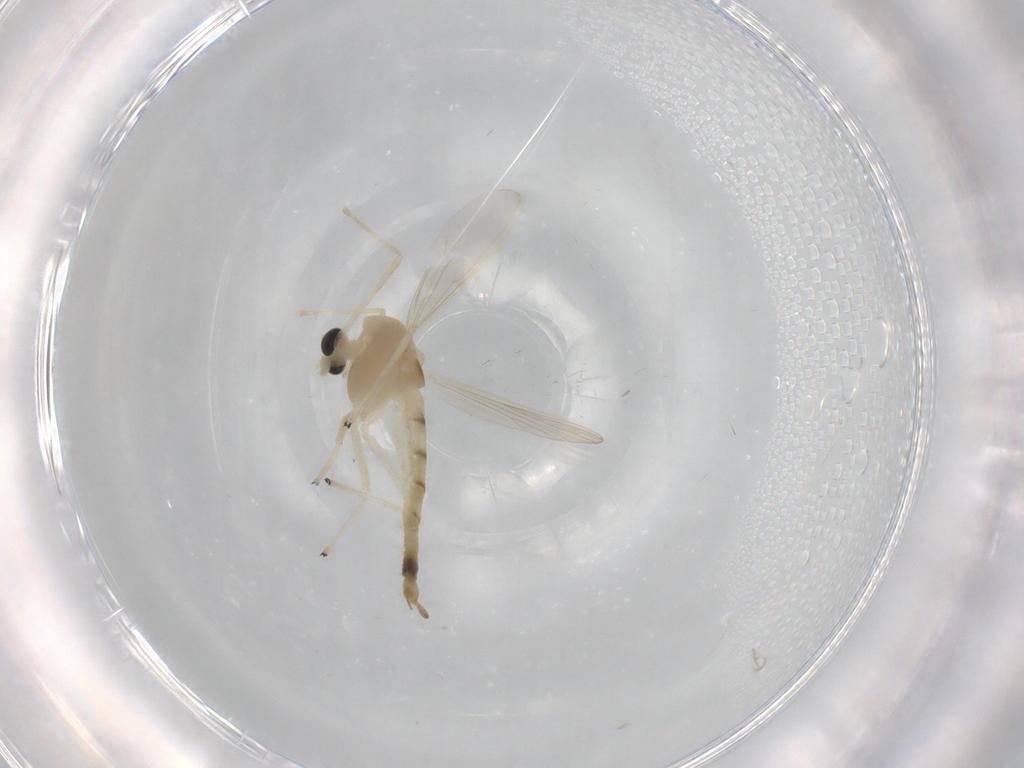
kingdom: Animalia
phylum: Arthropoda
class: Insecta
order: Diptera
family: Chironomidae
